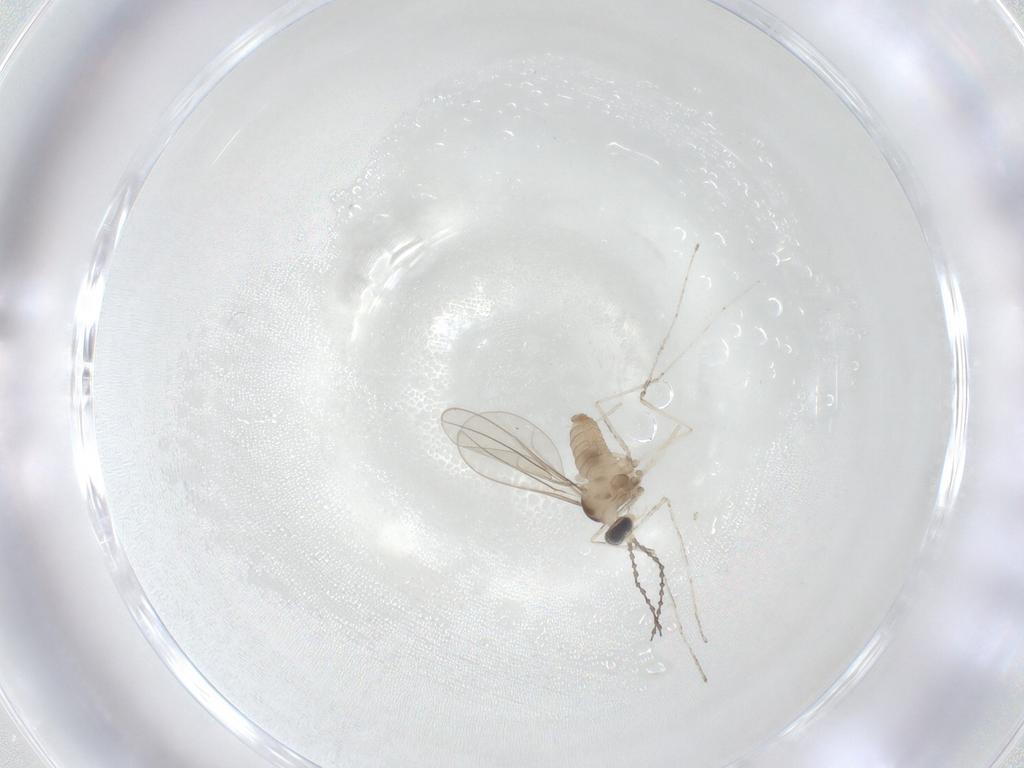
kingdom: Animalia
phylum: Arthropoda
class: Insecta
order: Diptera
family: Cecidomyiidae
